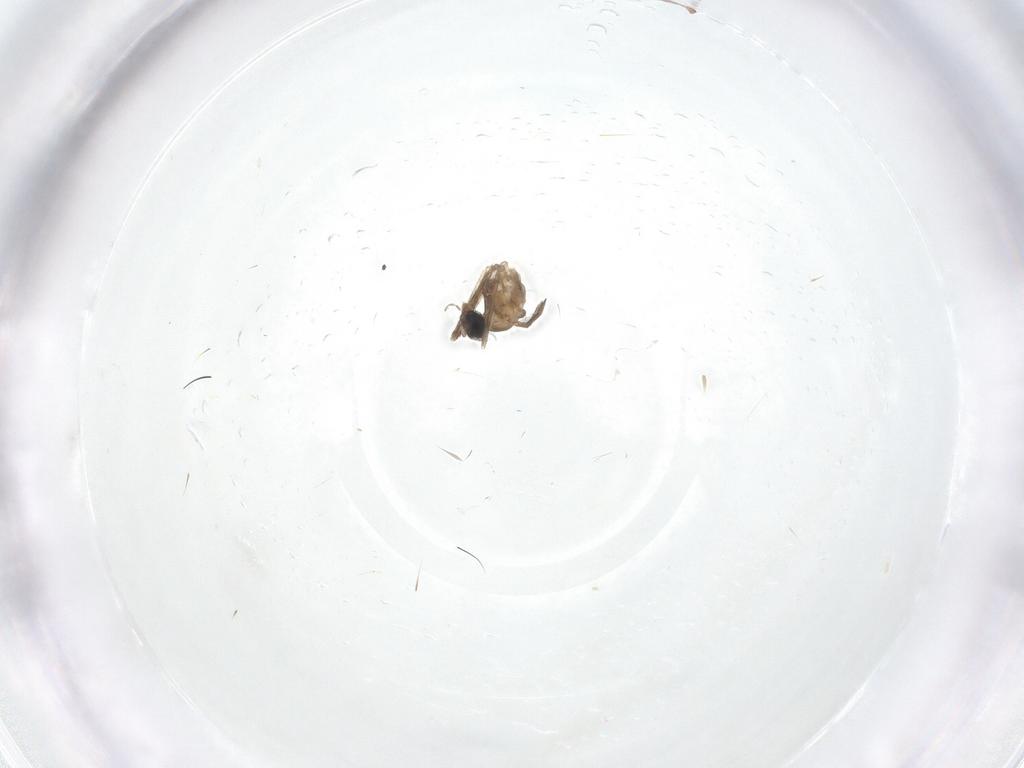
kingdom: Animalia
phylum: Arthropoda
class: Insecta
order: Diptera
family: Cecidomyiidae
